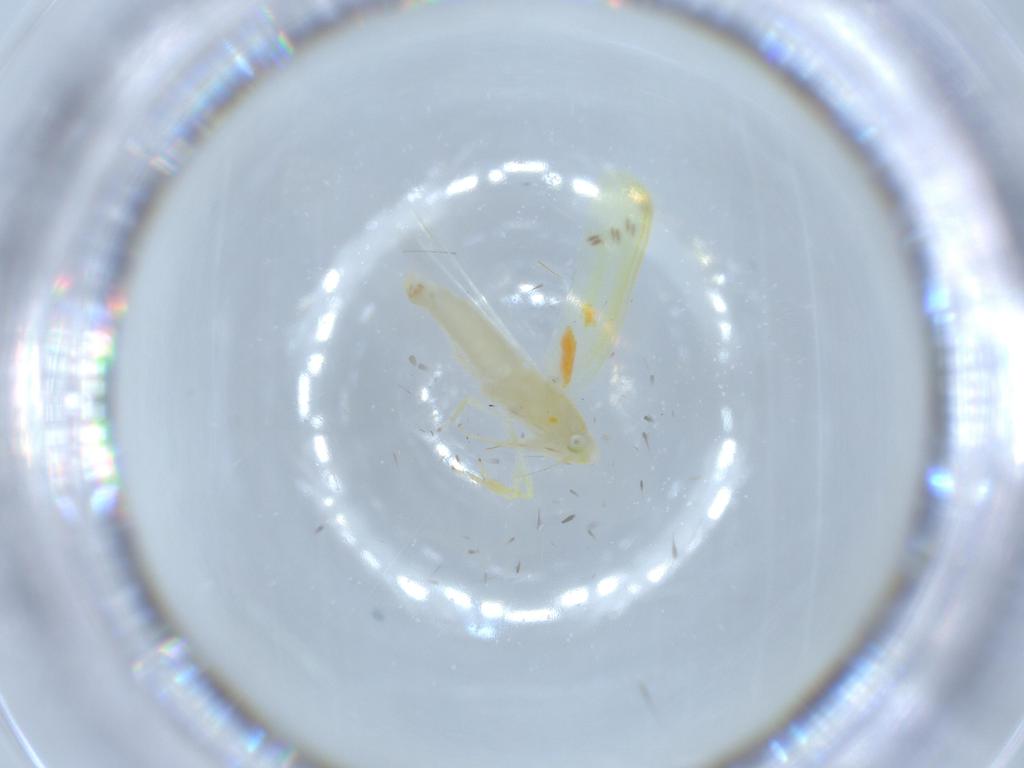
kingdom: Animalia
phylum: Arthropoda
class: Insecta
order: Hemiptera
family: Cicadellidae
